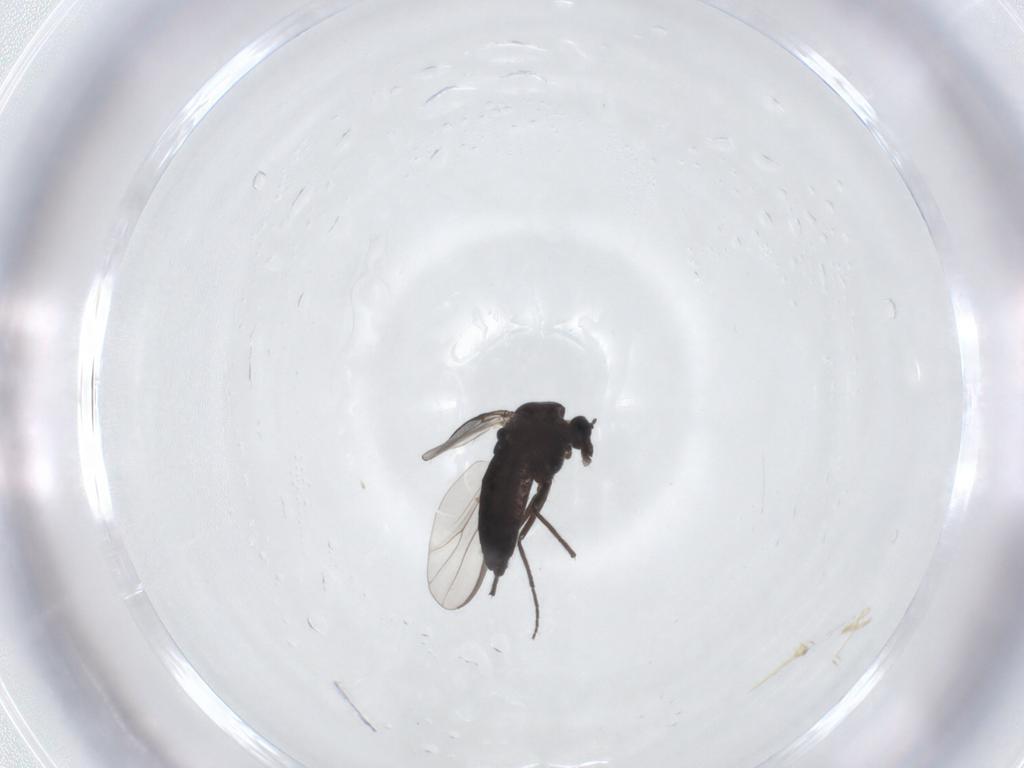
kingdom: Animalia
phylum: Arthropoda
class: Insecta
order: Diptera
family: Chironomidae
